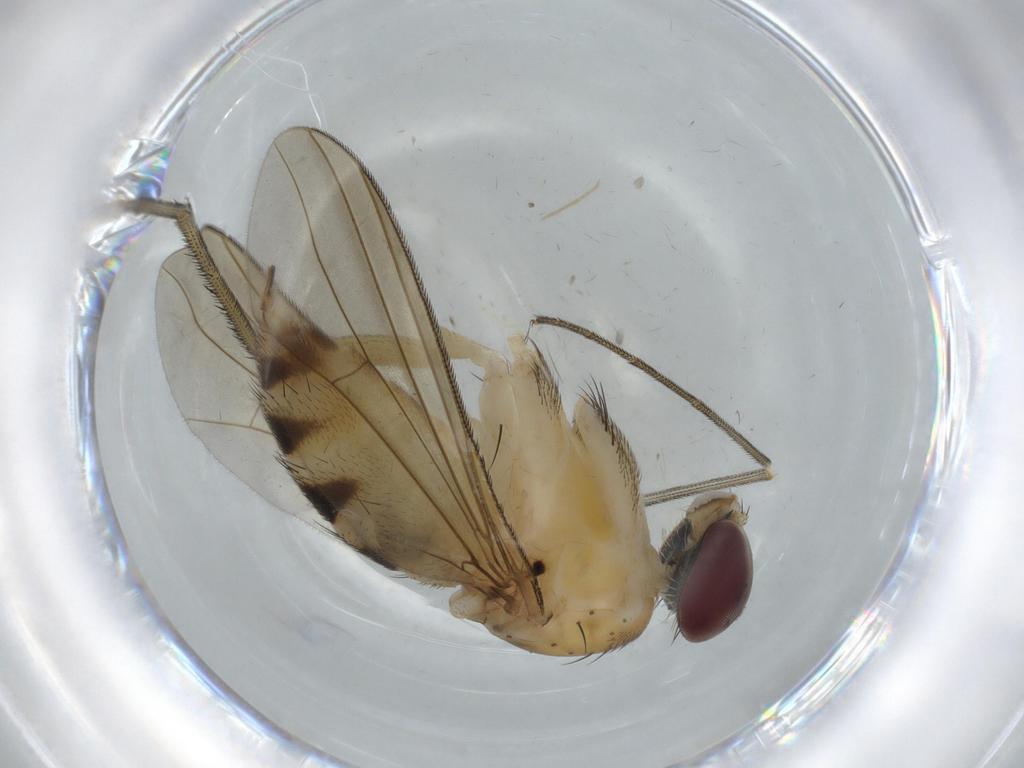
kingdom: Animalia
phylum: Arthropoda
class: Insecta
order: Diptera
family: Dolichopodidae
